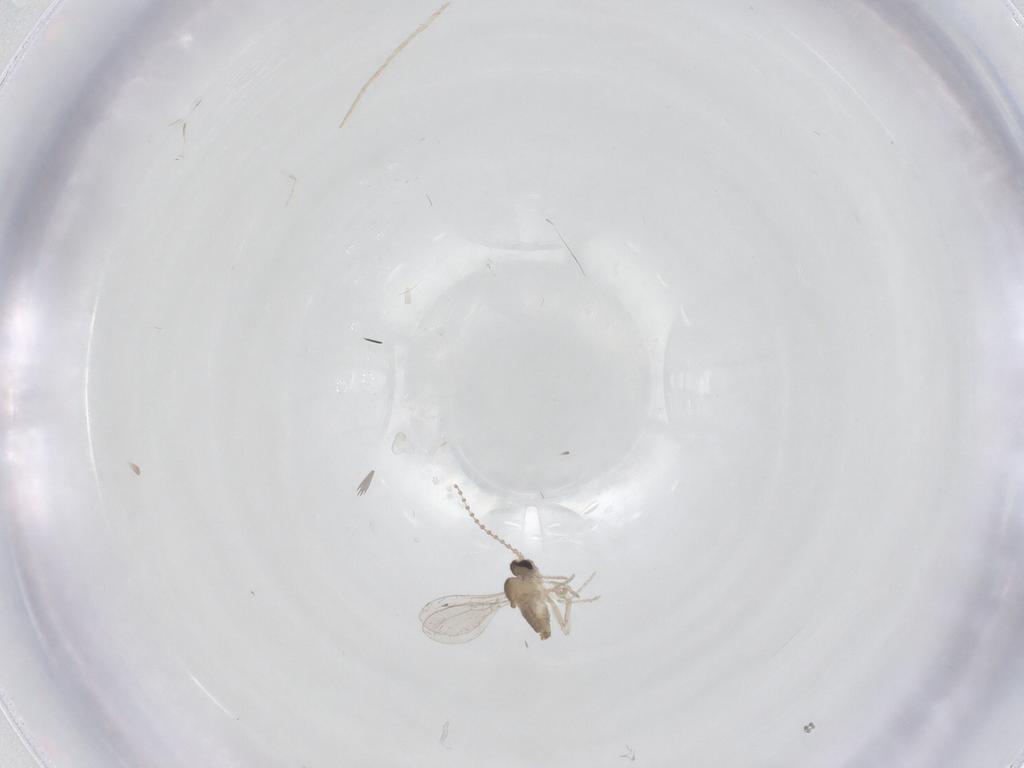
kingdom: Animalia
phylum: Arthropoda
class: Insecta
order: Diptera
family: Cecidomyiidae
